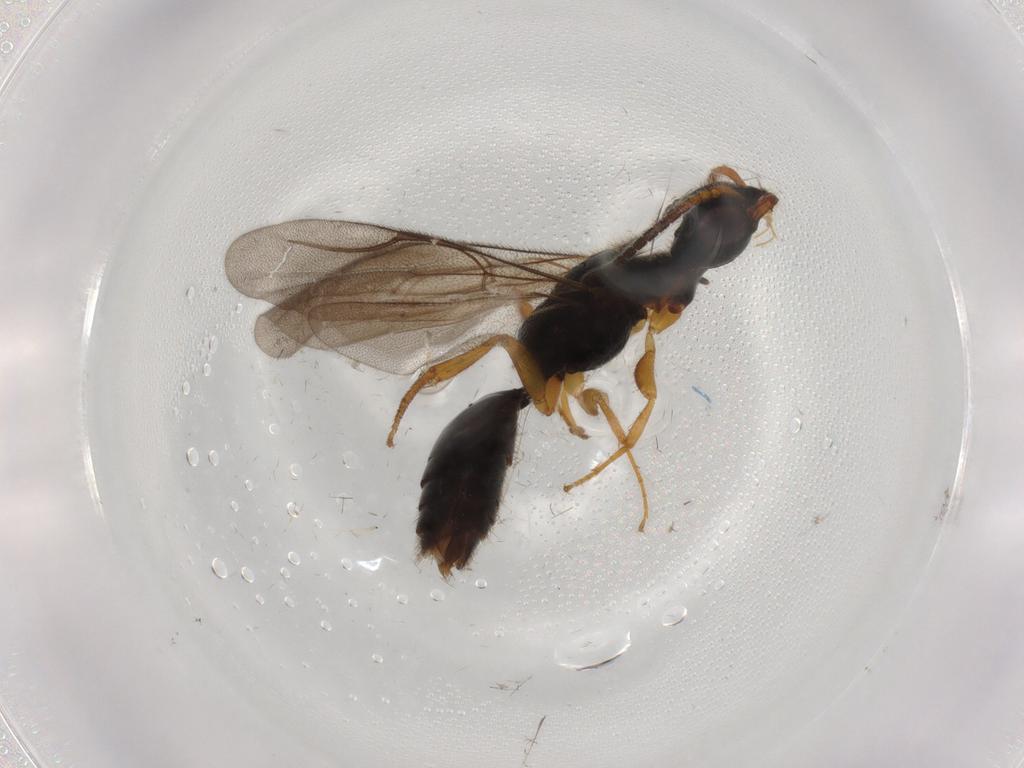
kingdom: Animalia
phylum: Arthropoda
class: Insecta
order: Hymenoptera
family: Bethylidae
